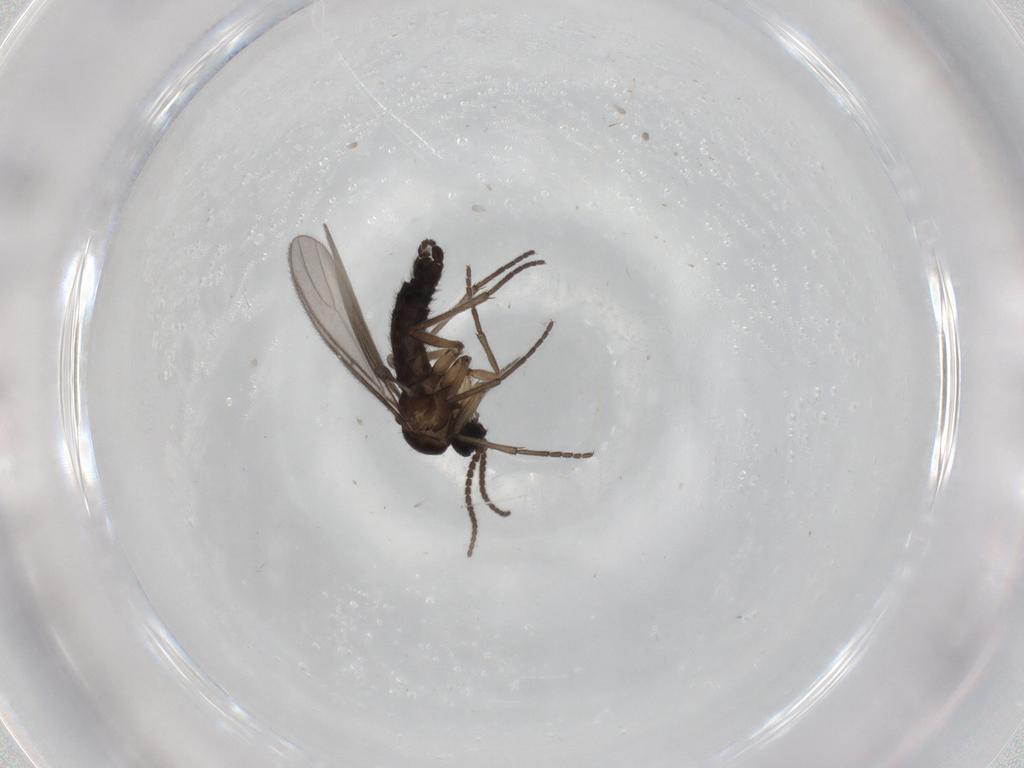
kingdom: Animalia
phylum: Arthropoda
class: Insecta
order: Diptera
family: Sciaridae
